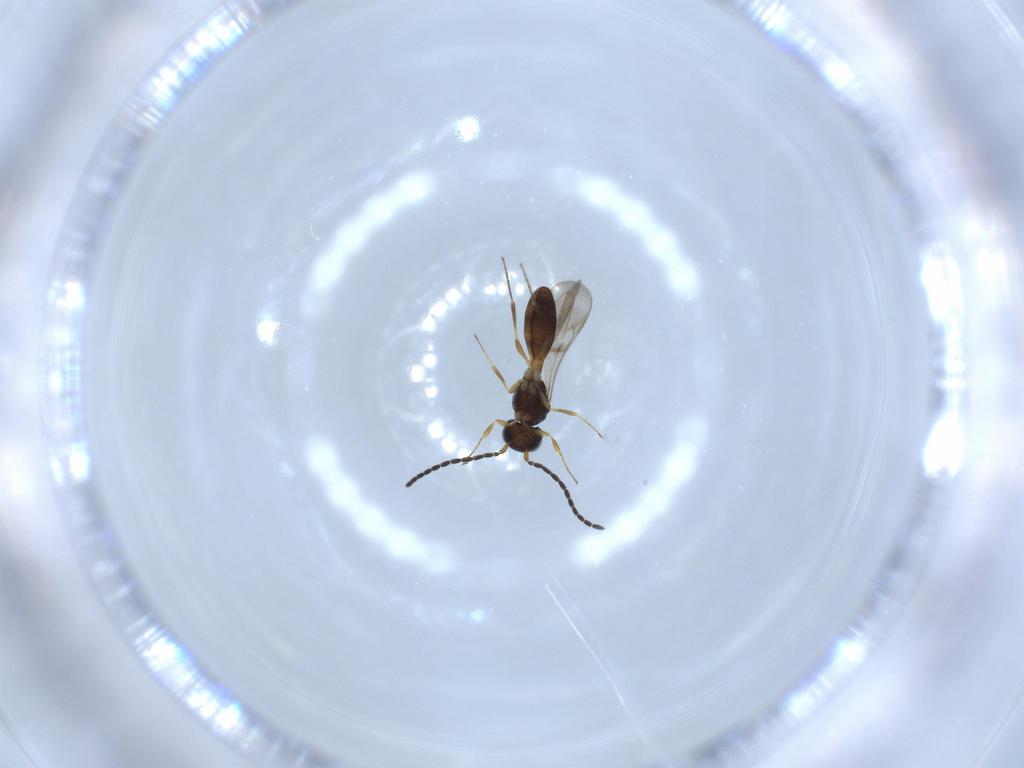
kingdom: Animalia
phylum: Arthropoda
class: Insecta
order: Hymenoptera
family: Scelionidae
